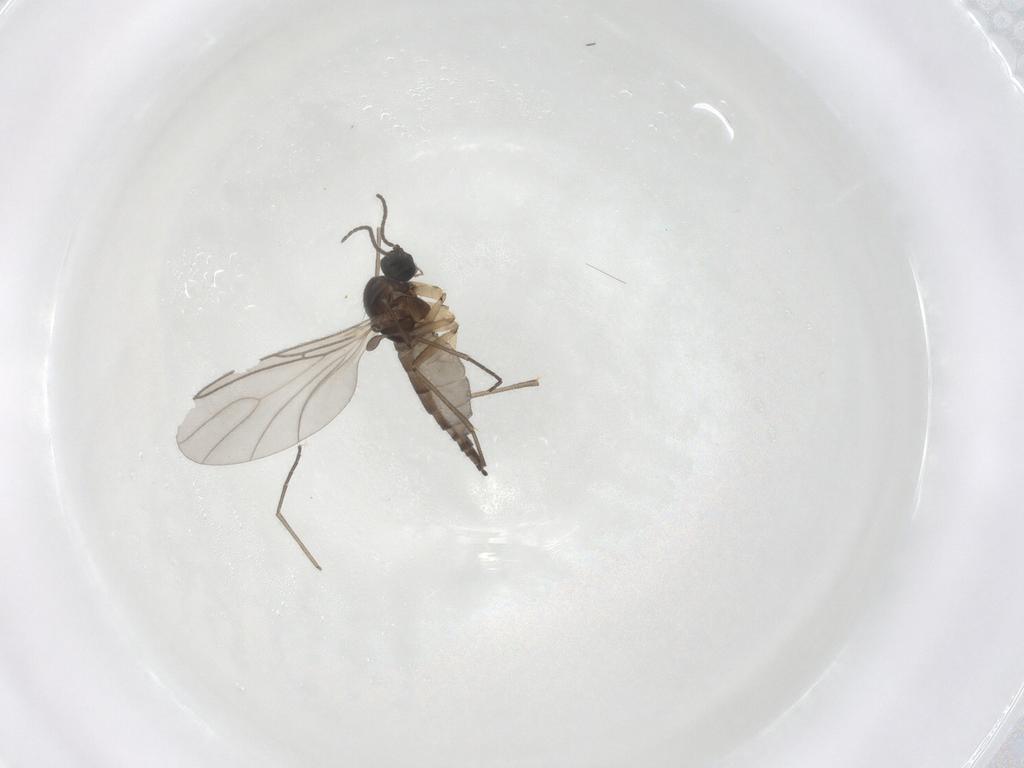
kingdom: Animalia
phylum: Arthropoda
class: Insecta
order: Diptera
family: Sciaridae
